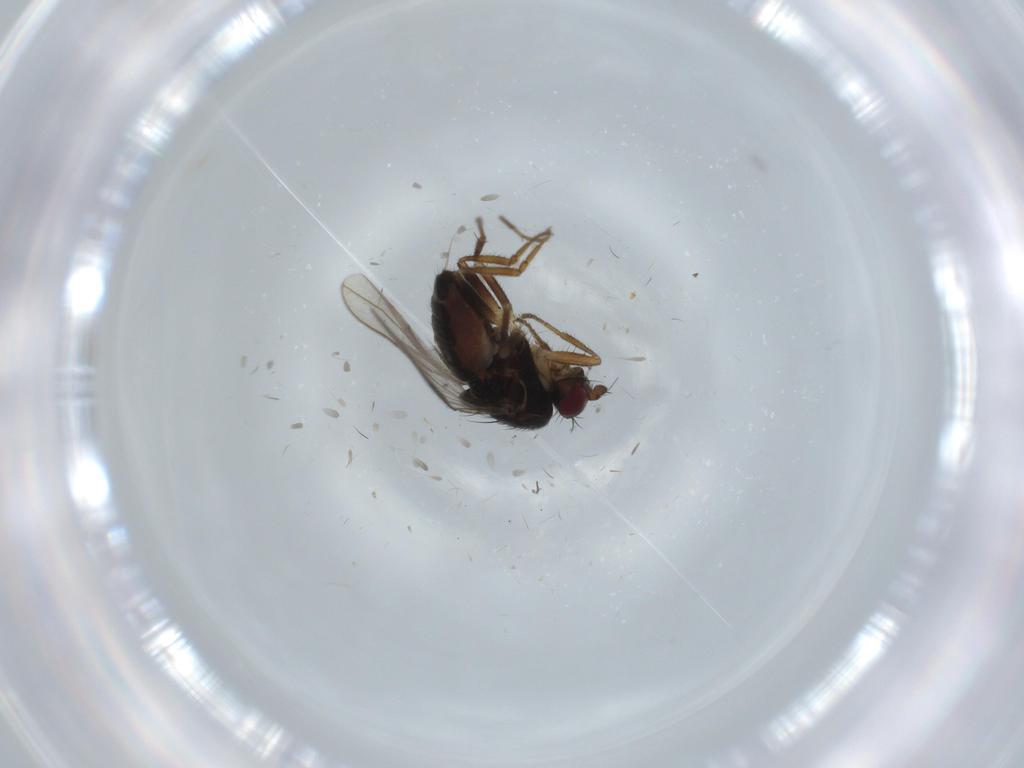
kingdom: Animalia
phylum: Arthropoda
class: Insecta
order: Diptera
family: Sphaeroceridae
